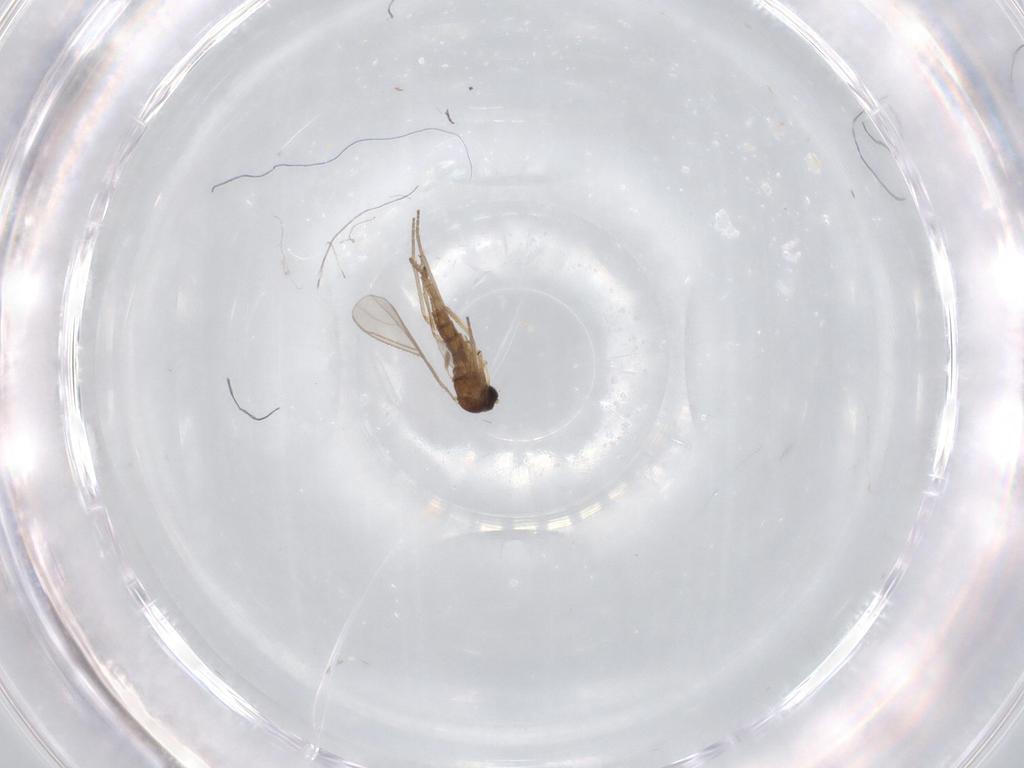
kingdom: Animalia
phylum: Arthropoda
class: Insecta
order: Diptera
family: Sciaridae
